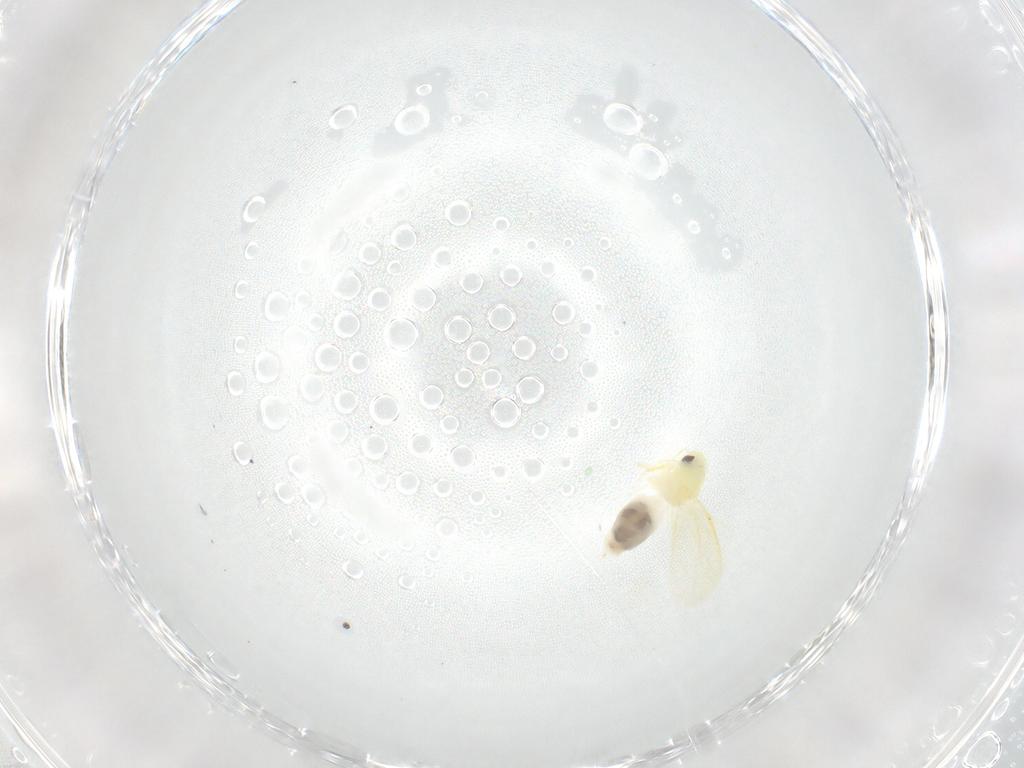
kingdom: Animalia
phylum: Arthropoda
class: Insecta
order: Hemiptera
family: Aleyrodidae
